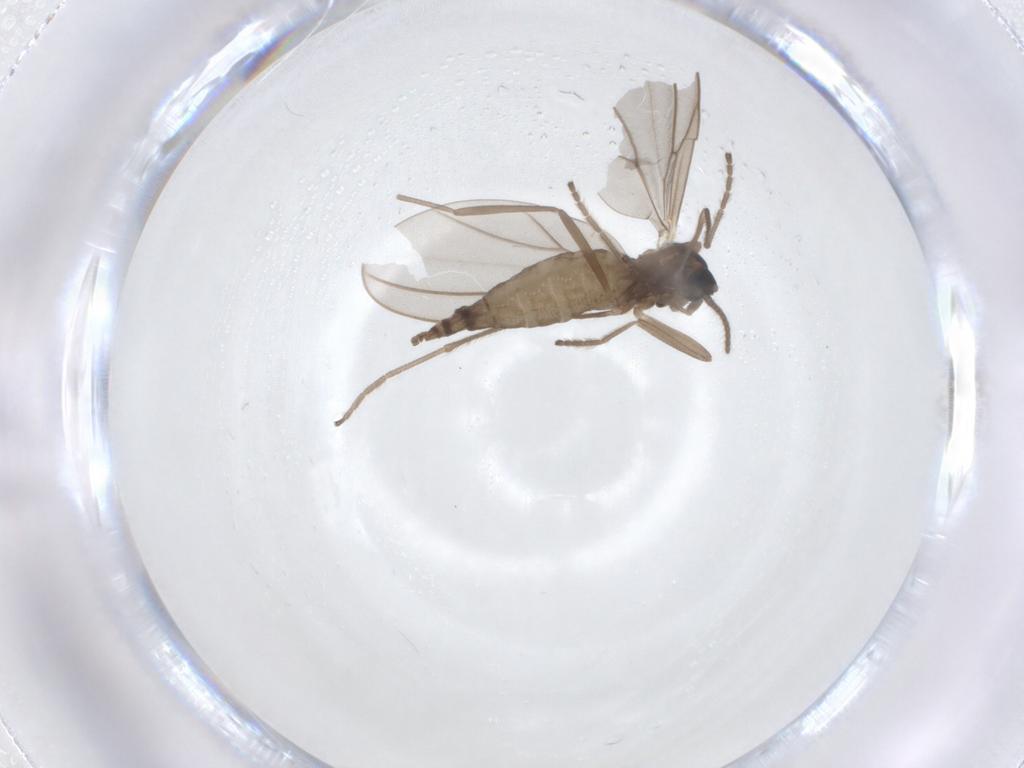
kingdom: Animalia
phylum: Arthropoda
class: Insecta
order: Diptera
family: Cecidomyiidae
